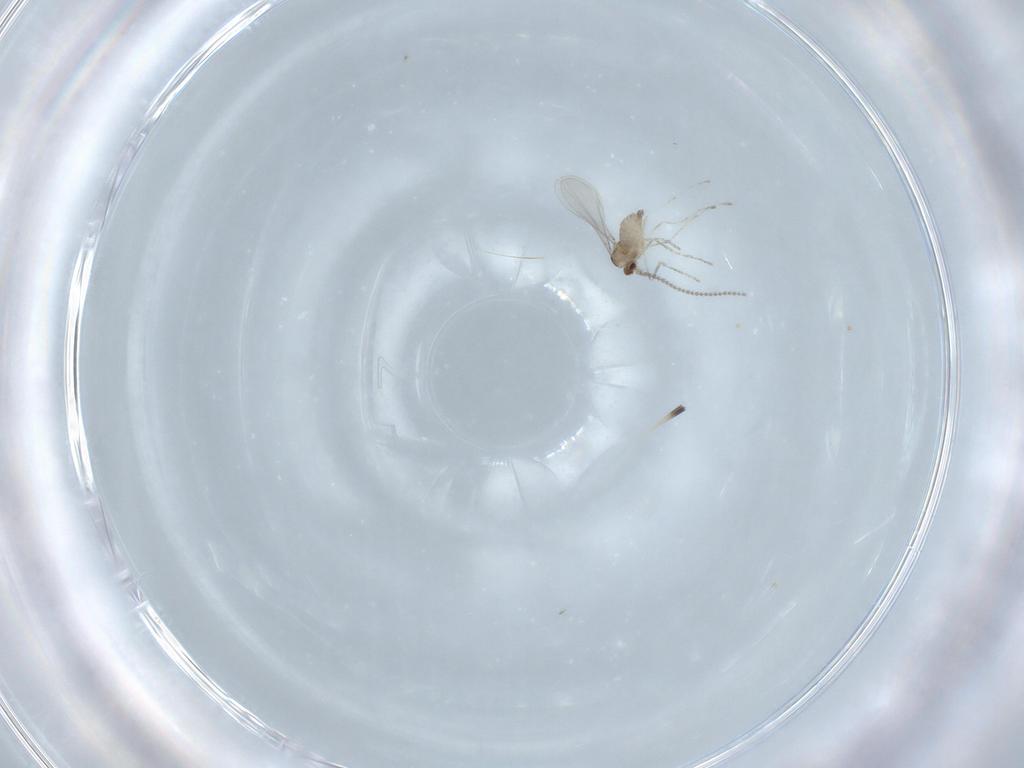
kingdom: Animalia
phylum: Arthropoda
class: Insecta
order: Diptera
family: Cecidomyiidae
